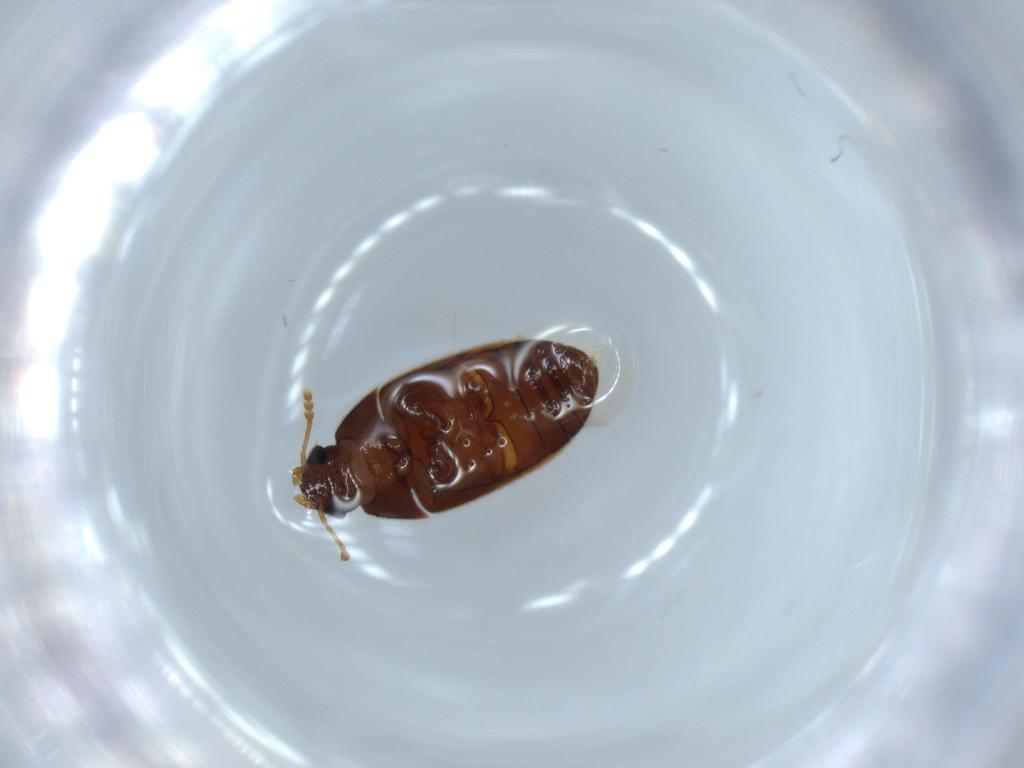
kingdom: Animalia
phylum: Arthropoda
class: Insecta
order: Coleoptera
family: Mycetophagidae
